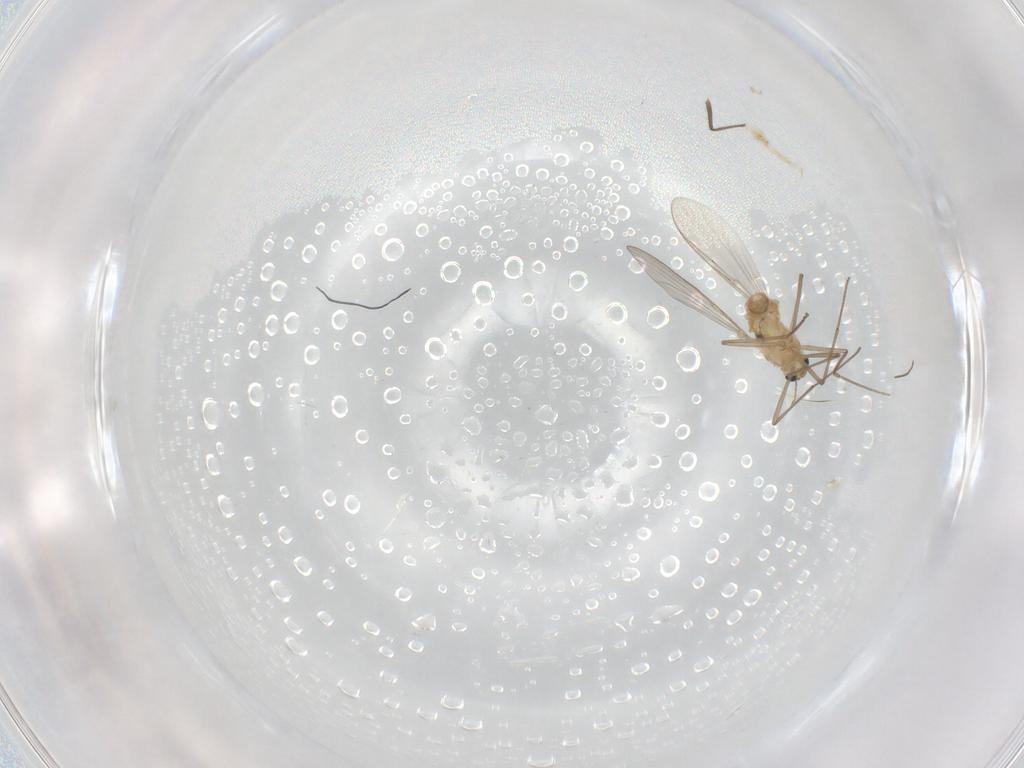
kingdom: Animalia
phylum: Arthropoda
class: Insecta
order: Diptera
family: Chironomidae
